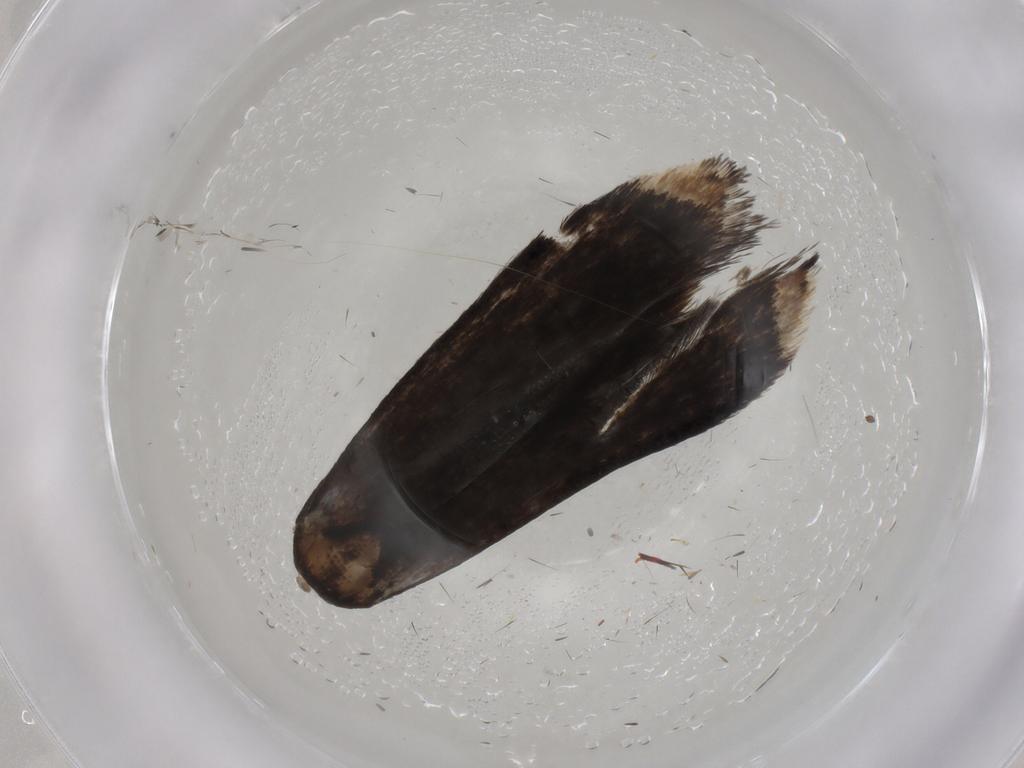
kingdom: Animalia
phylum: Arthropoda
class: Insecta
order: Lepidoptera
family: Gelechiidae
